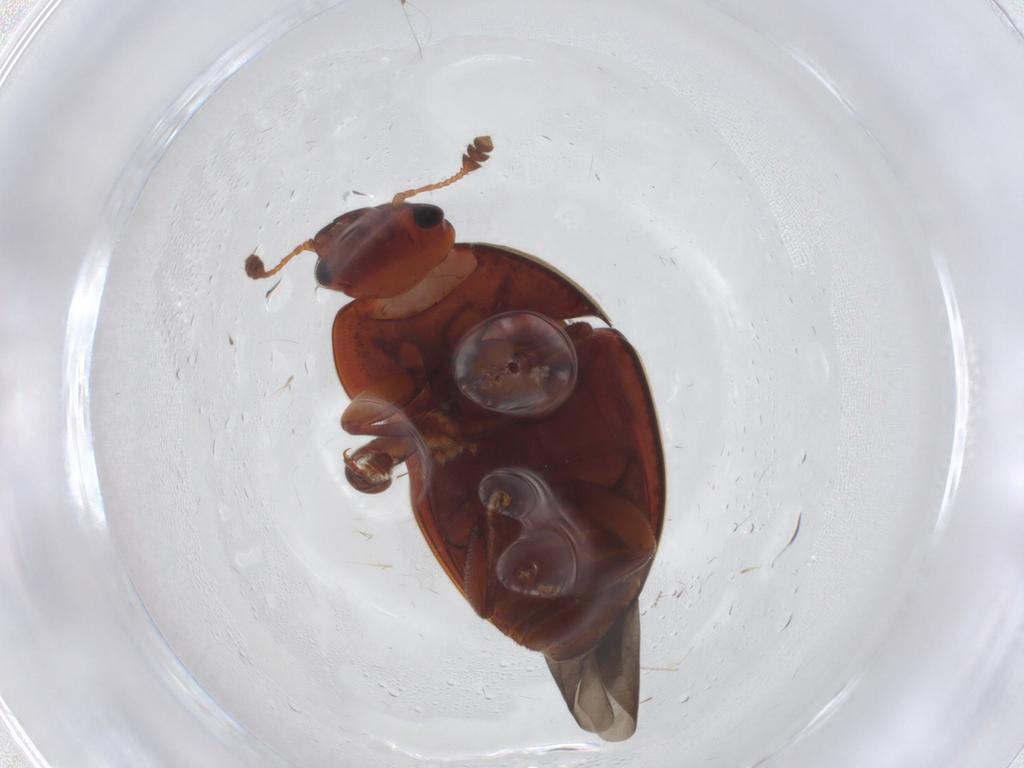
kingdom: Animalia
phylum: Arthropoda
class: Insecta
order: Coleoptera
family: Nitidulidae
